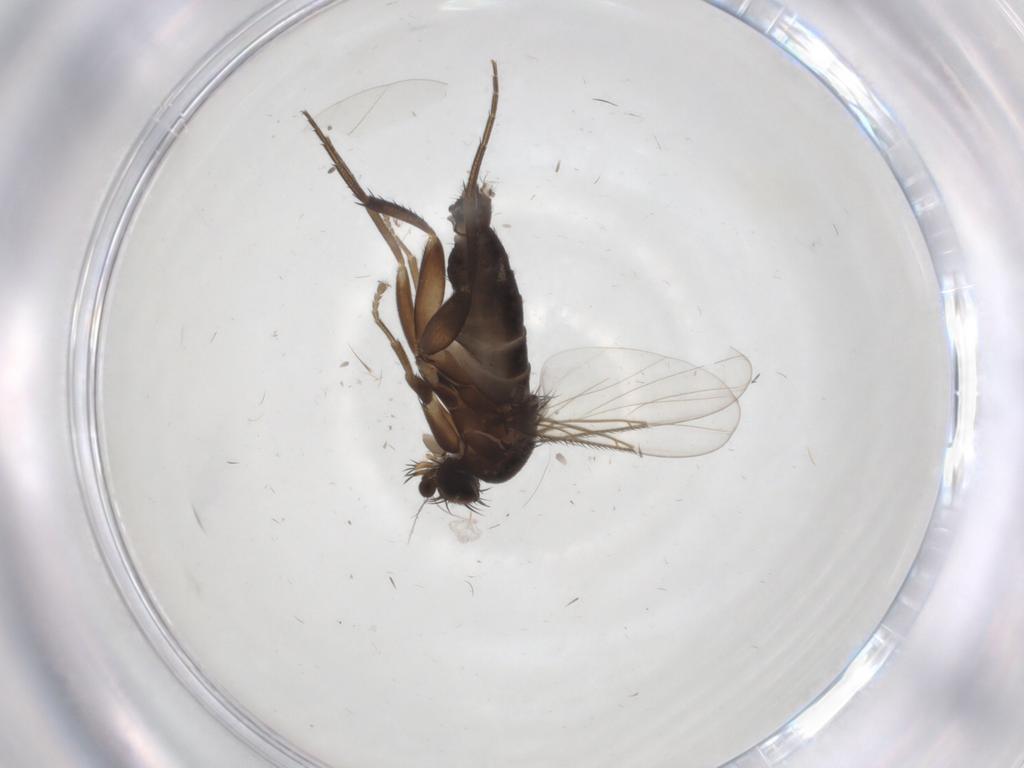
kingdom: Animalia
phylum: Arthropoda
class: Insecta
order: Diptera
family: Phoridae
